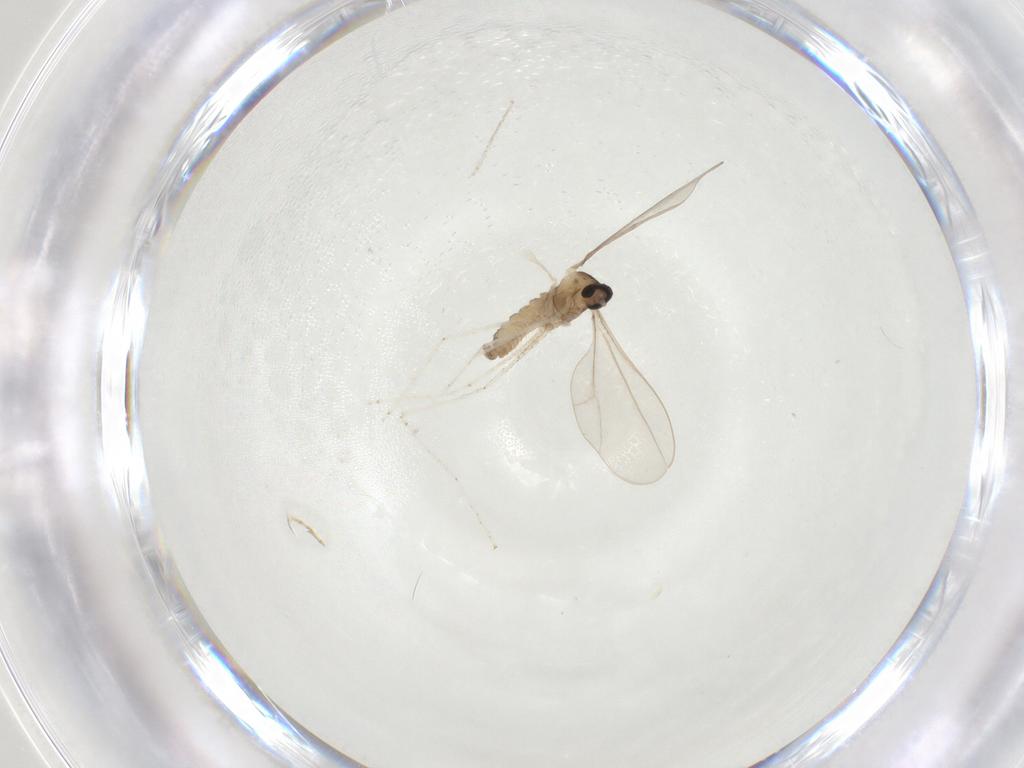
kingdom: Animalia
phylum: Arthropoda
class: Insecta
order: Diptera
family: Cecidomyiidae
